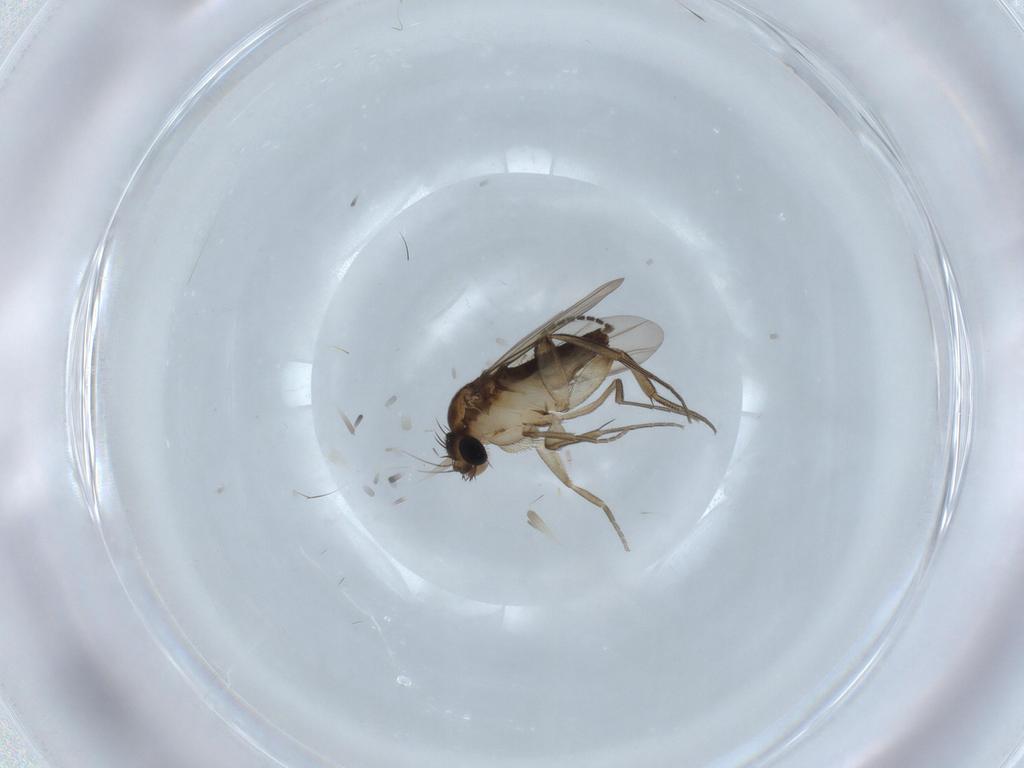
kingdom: Animalia
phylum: Arthropoda
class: Insecta
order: Diptera
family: Phoridae
